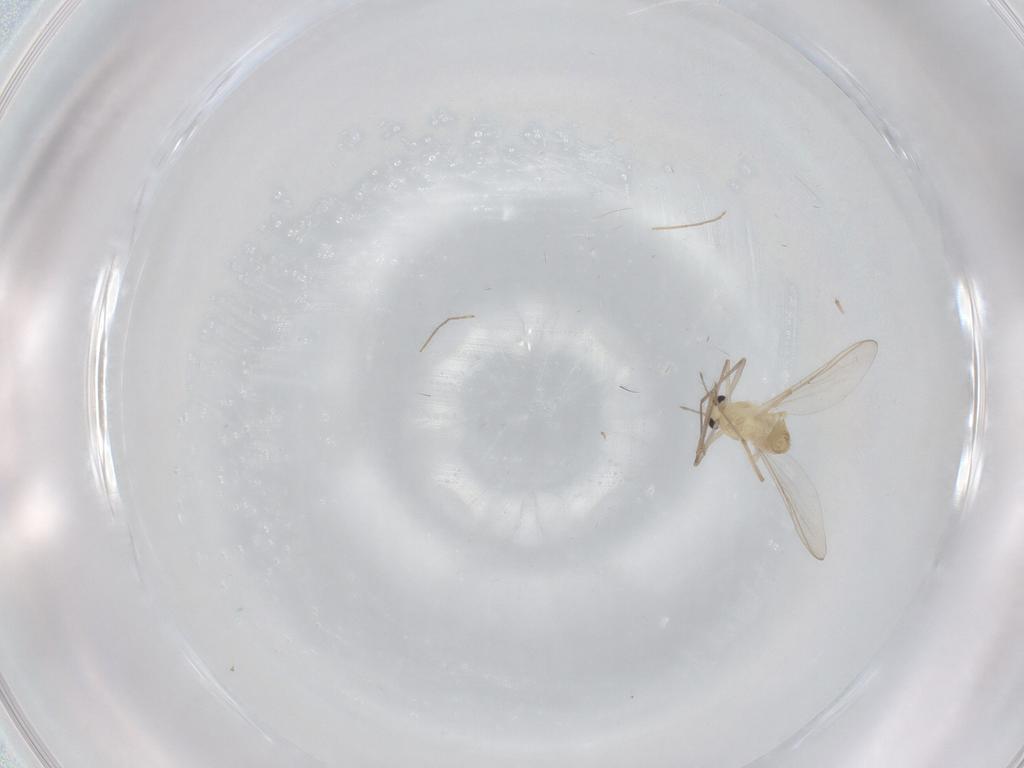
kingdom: Animalia
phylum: Arthropoda
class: Insecta
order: Diptera
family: Chironomidae
